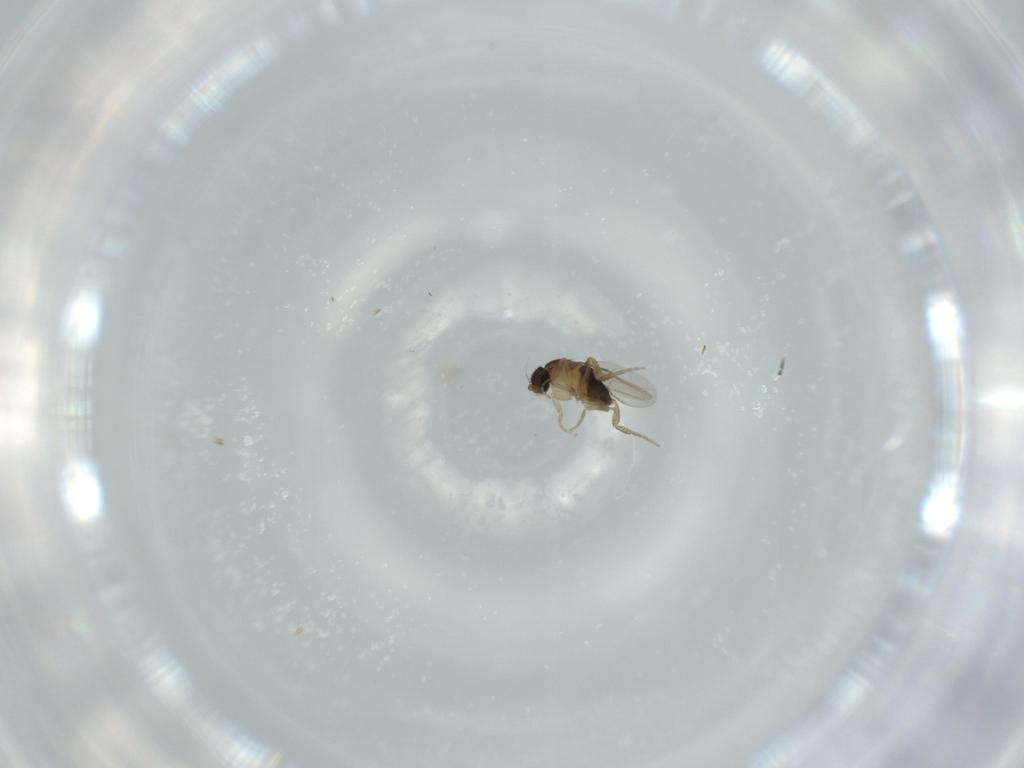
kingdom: Animalia
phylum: Arthropoda
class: Insecta
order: Diptera
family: Phoridae
